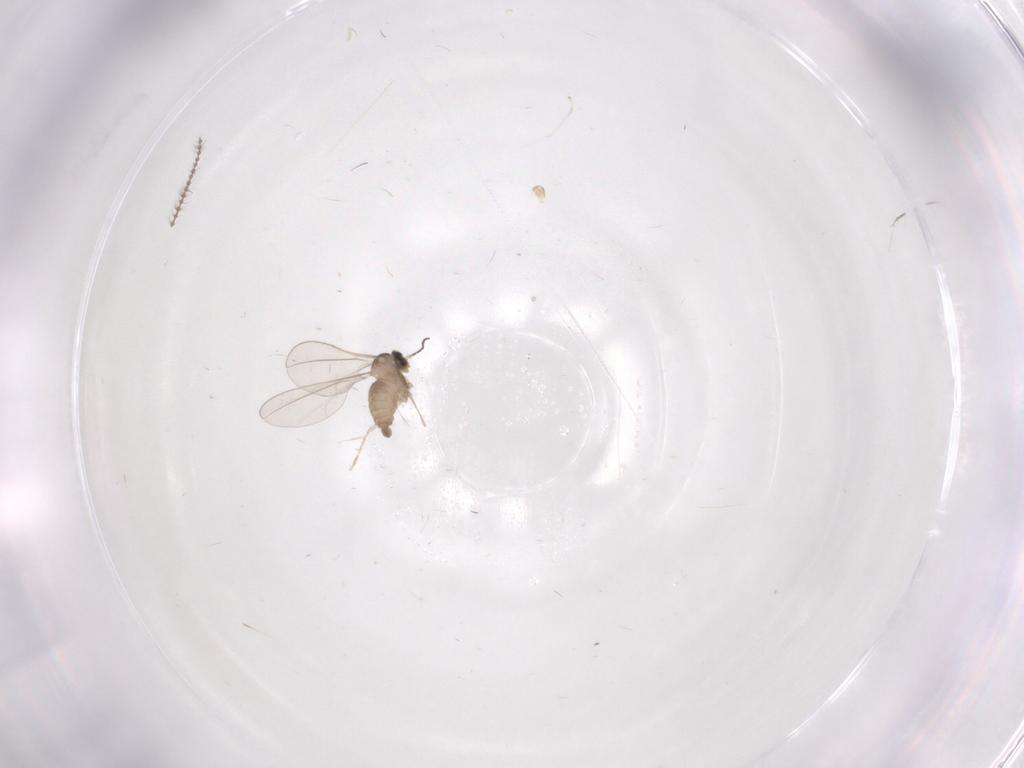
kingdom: Animalia
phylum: Arthropoda
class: Insecta
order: Diptera
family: Cecidomyiidae
